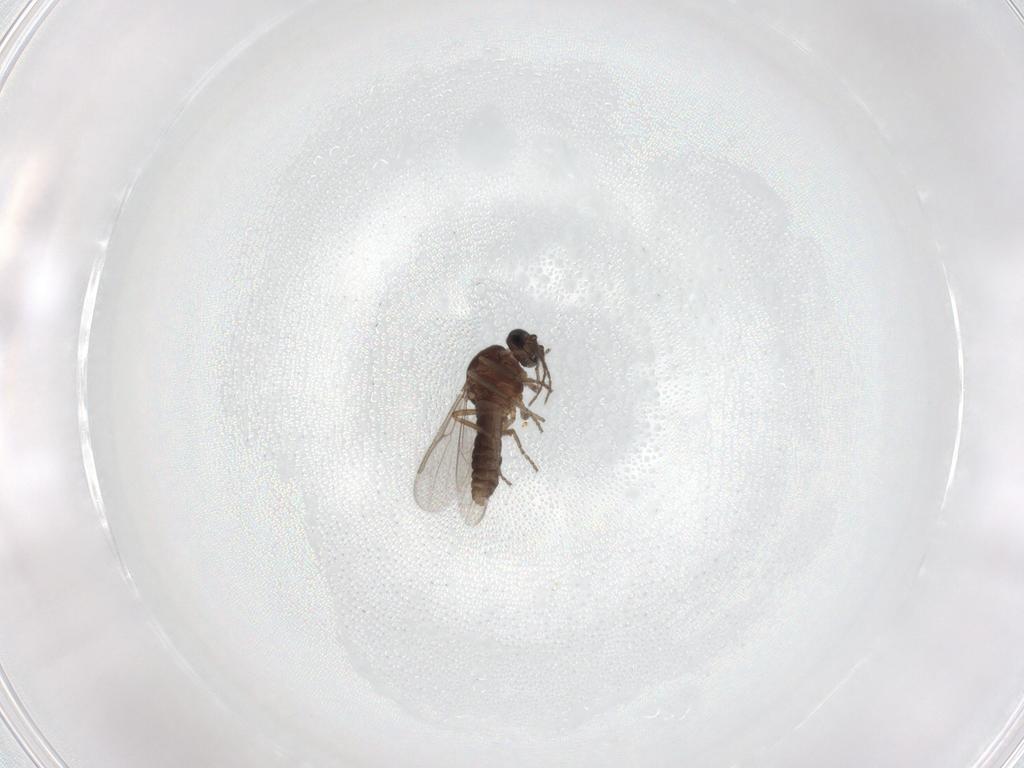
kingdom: Animalia
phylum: Arthropoda
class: Insecta
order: Diptera
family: Ceratopogonidae
